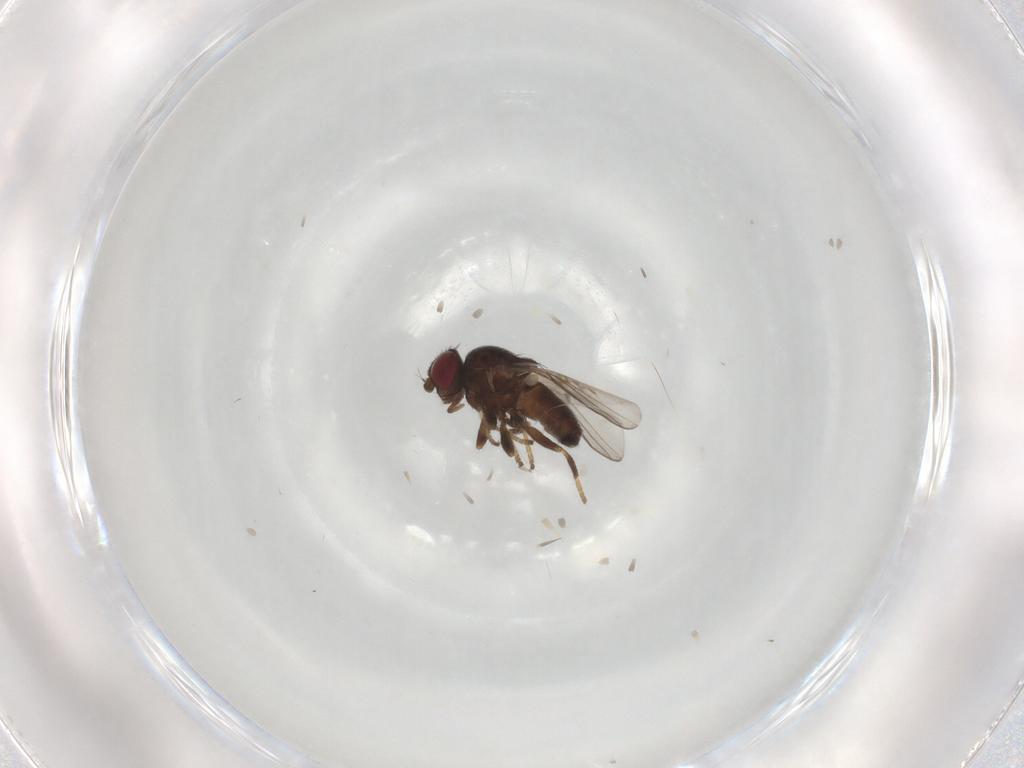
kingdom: Animalia
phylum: Arthropoda
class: Insecta
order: Diptera
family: Chloropidae
